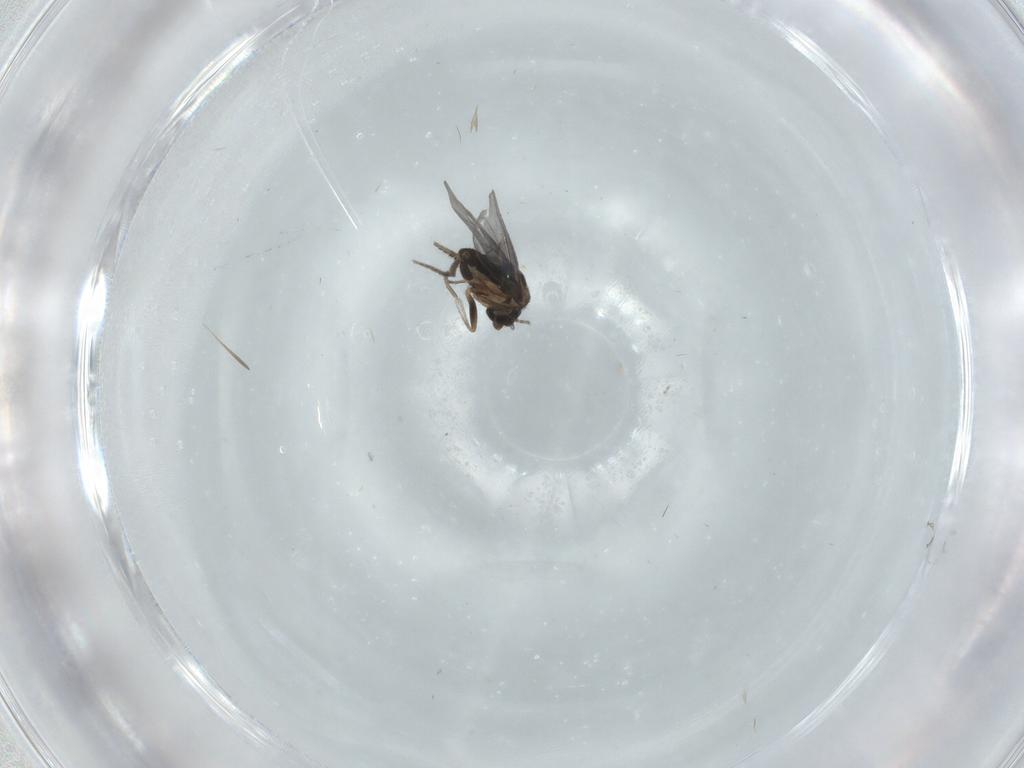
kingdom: Animalia
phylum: Arthropoda
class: Insecta
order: Diptera
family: Phoridae
